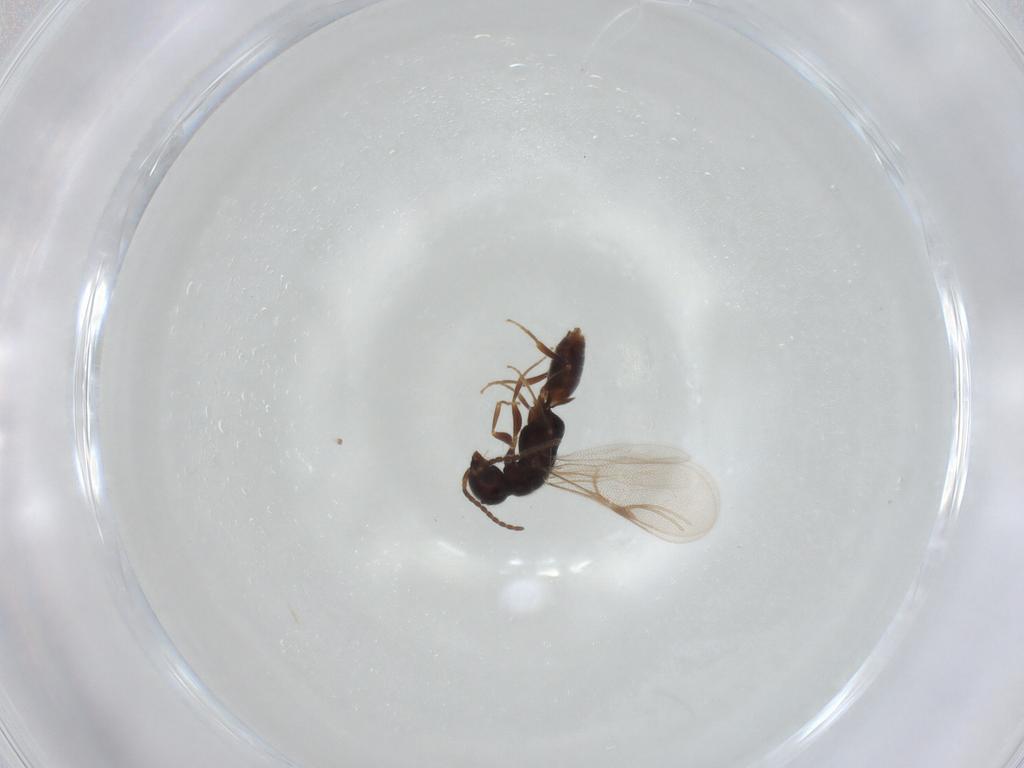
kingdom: Animalia
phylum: Arthropoda
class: Insecta
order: Hymenoptera
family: Bethylidae
